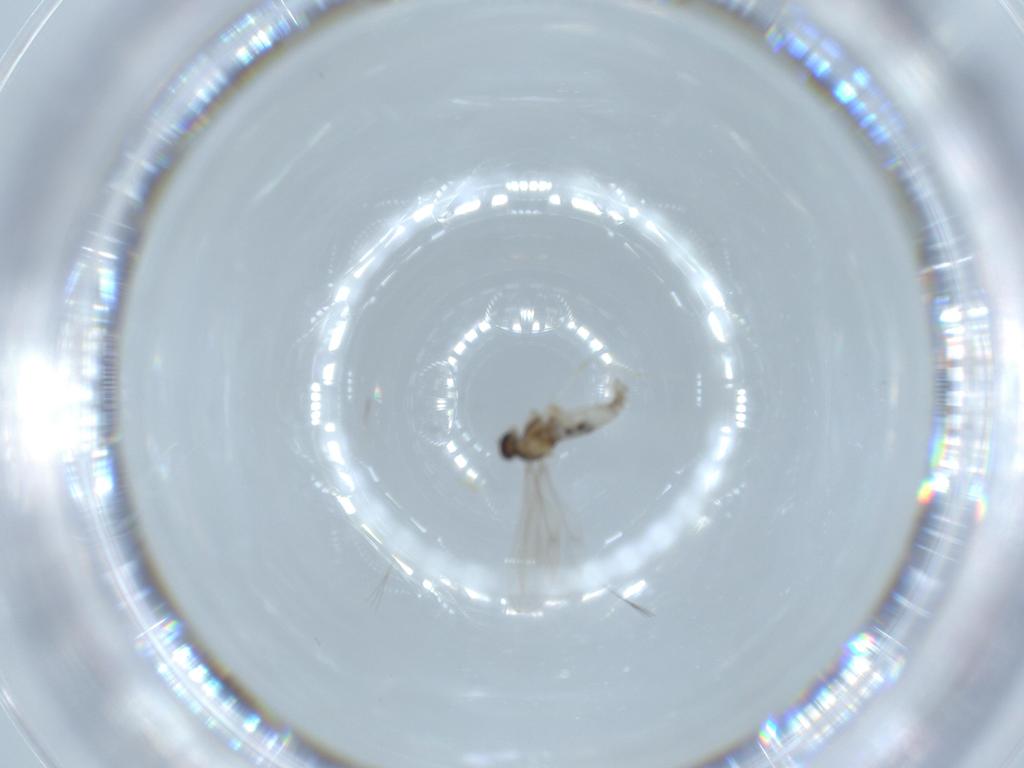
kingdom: Animalia
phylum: Arthropoda
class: Insecta
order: Diptera
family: Cecidomyiidae
